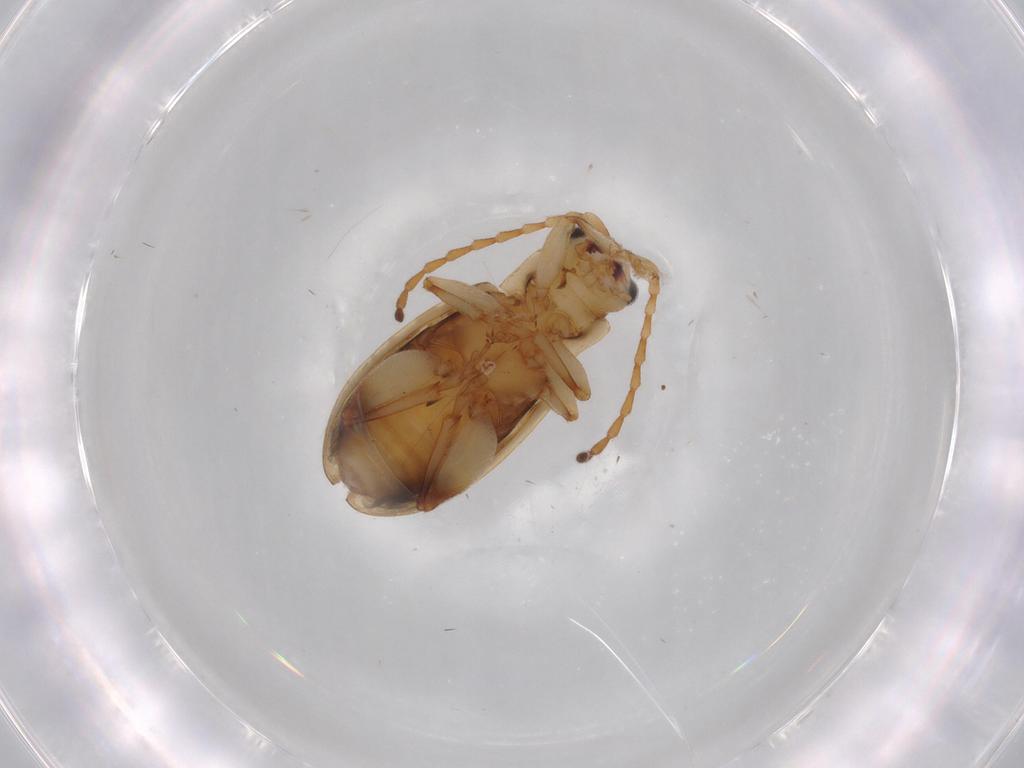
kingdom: Animalia
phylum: Arthropoda
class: Insecta
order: Coleoptera
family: Chrysomelidae
